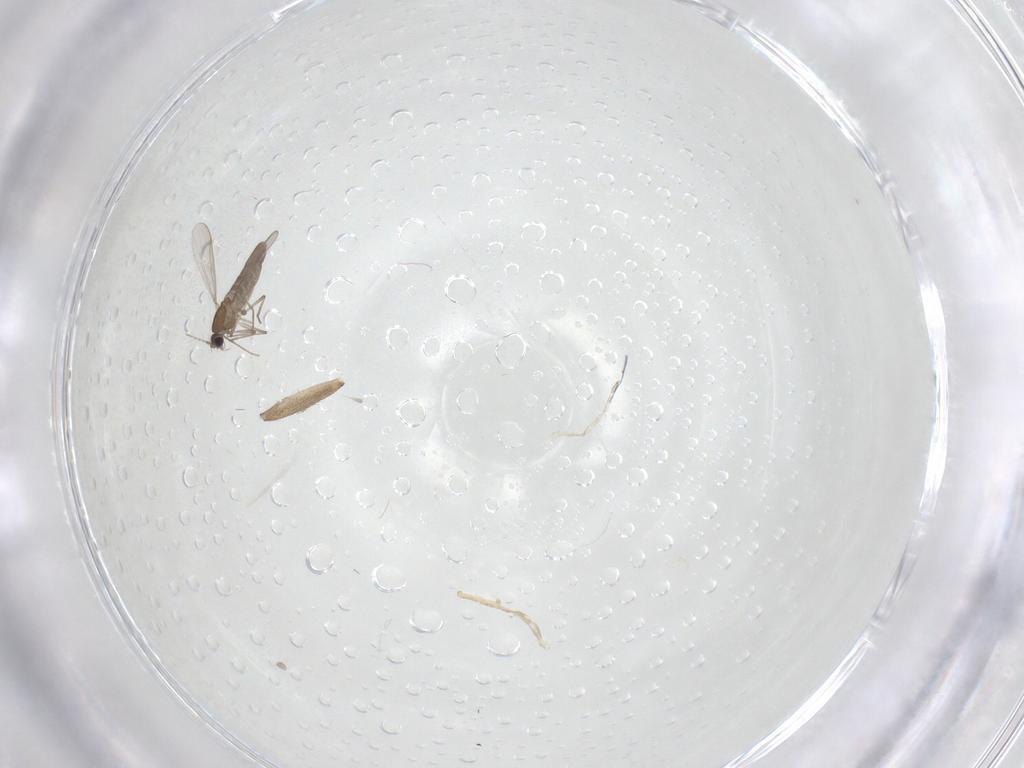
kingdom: Animalia
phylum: Arthropoda
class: Insecta
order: Diptera
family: Chironomidae
